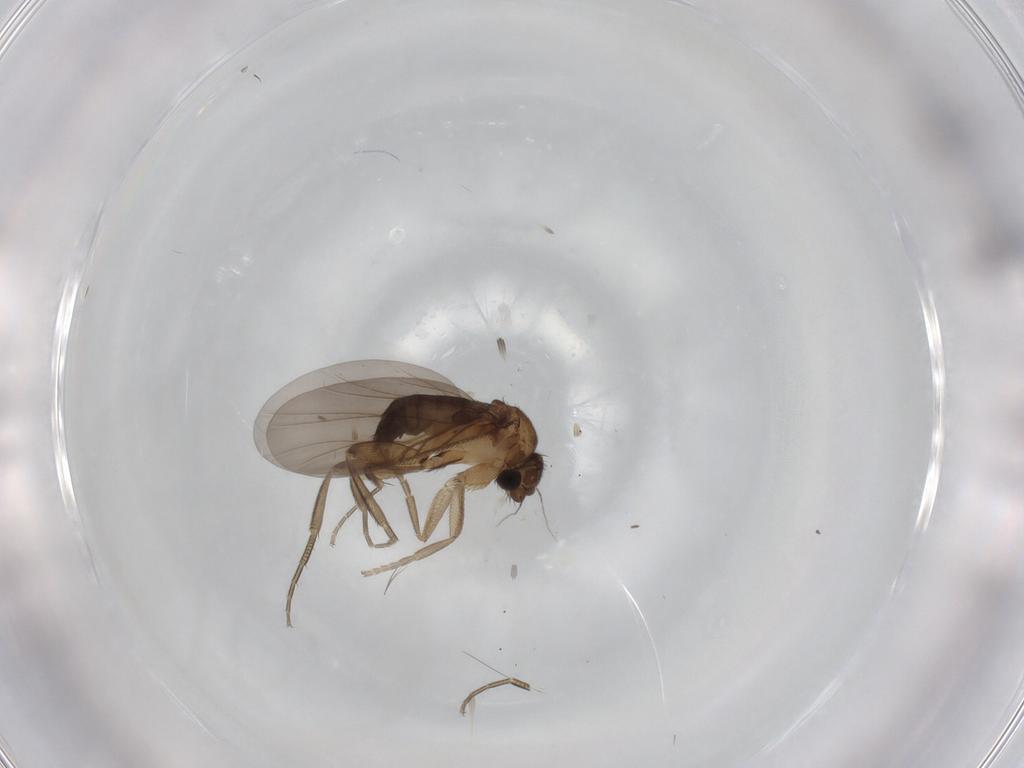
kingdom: Animalia
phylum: Arthropoda
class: Insecta
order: Diptera
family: Phoridae
